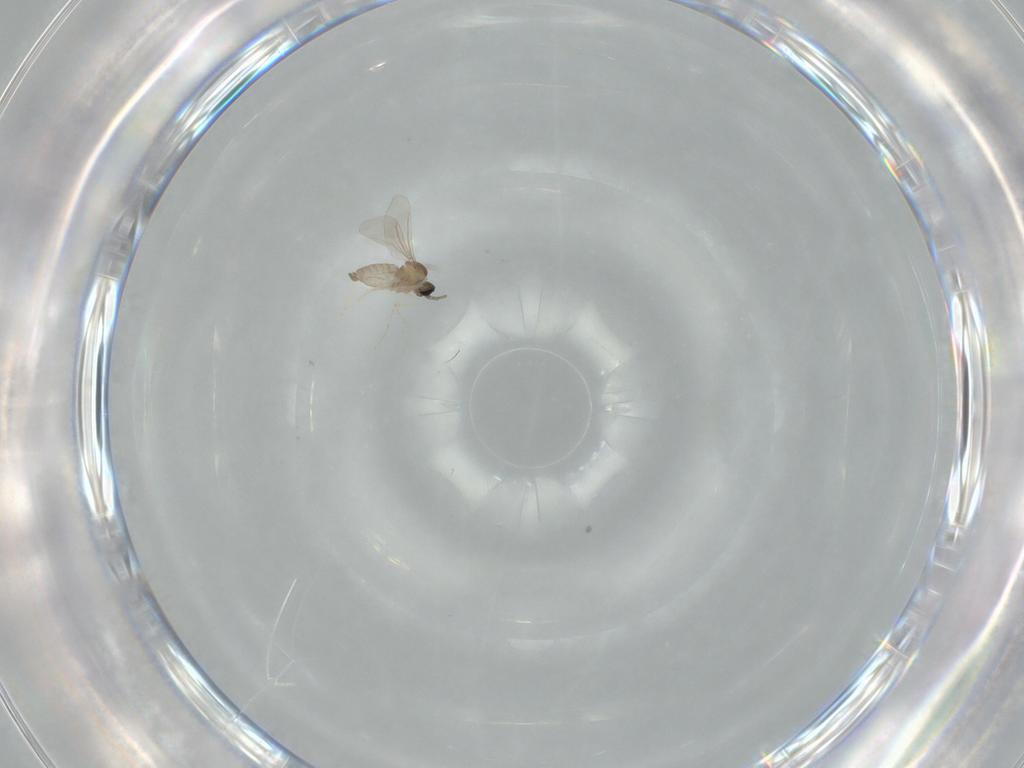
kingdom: Animalia
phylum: Arthropoda
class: Insecta
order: Diptera
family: Cecidomyiidae
